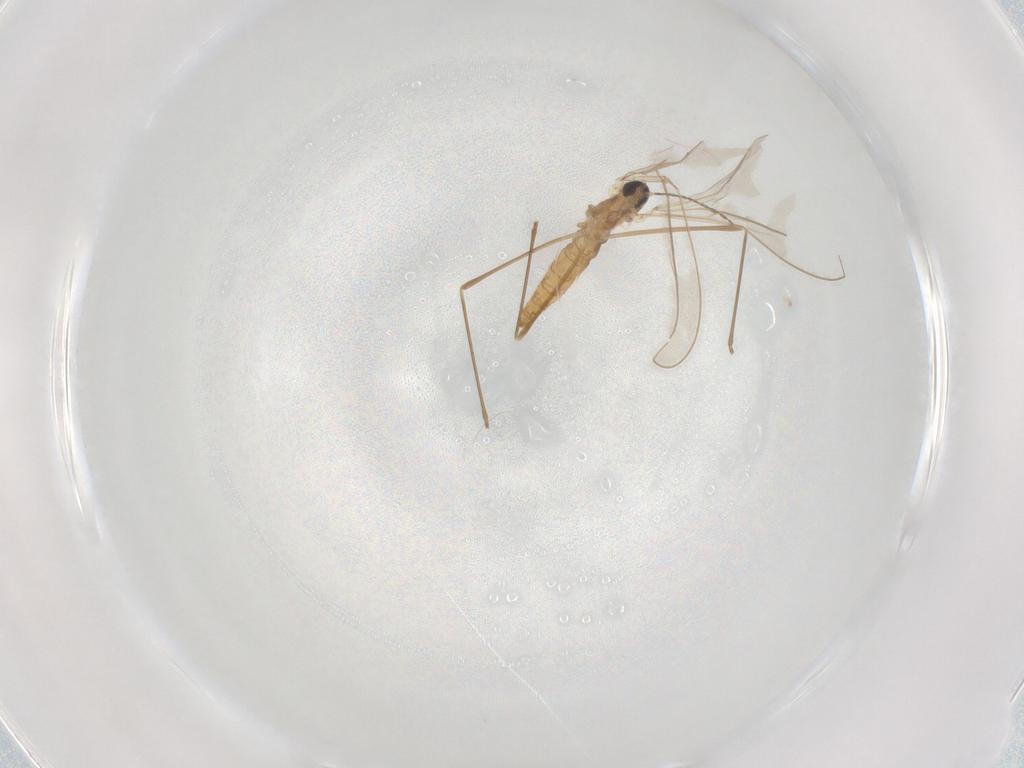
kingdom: Animalia
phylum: Arthropoda
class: Insecta
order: Diptera
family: Cecidomyiidae
